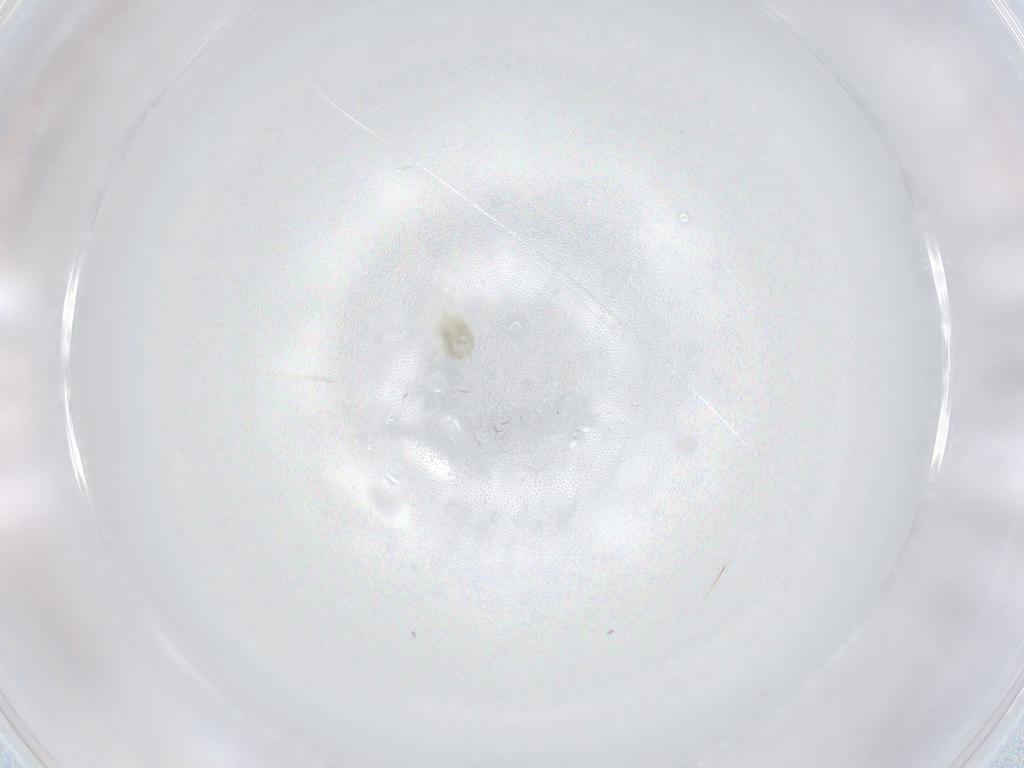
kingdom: Animalia
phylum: Arthropoda
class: Arachnida
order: Mesostigmata
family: Melicharidae
